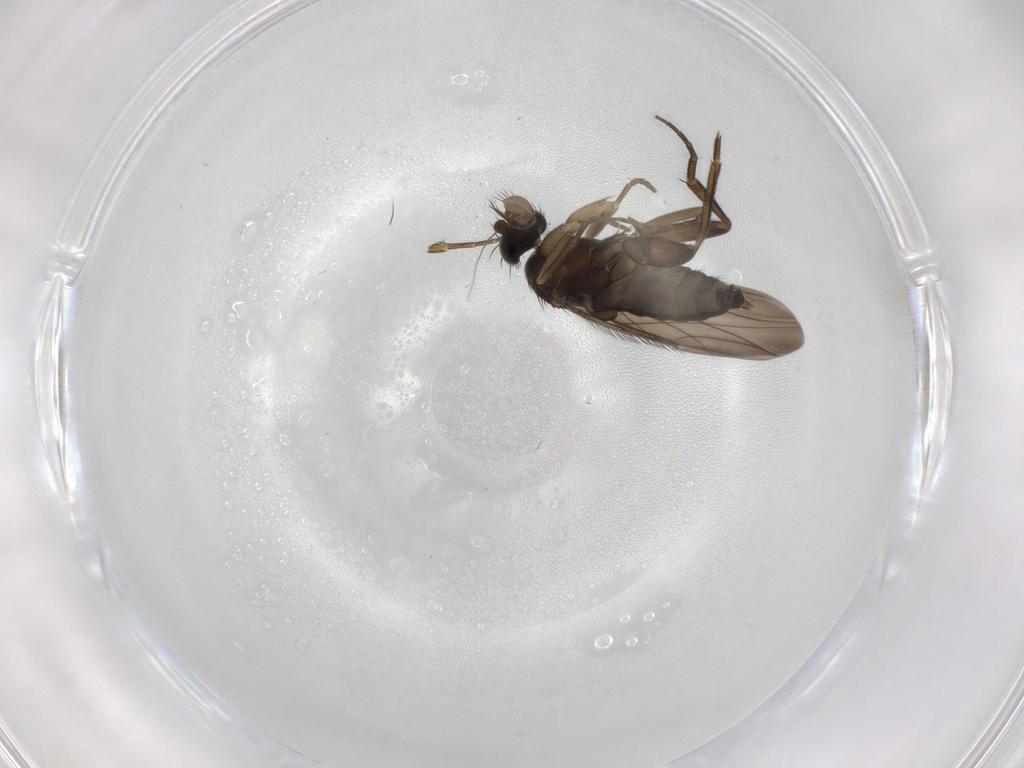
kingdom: Animalia
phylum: Arthropoda
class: Insecta
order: Diptera
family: Phoridae
